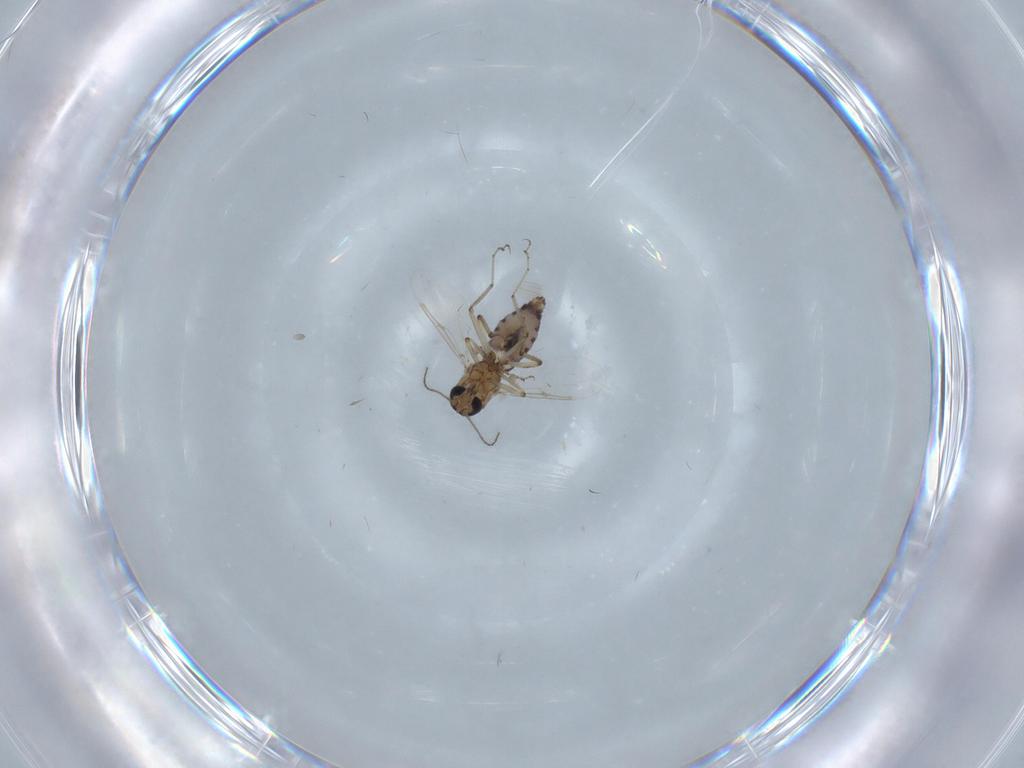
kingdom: Animalia
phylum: Arthropoda
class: Insecta
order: Diptera
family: Ceratopogonidae
